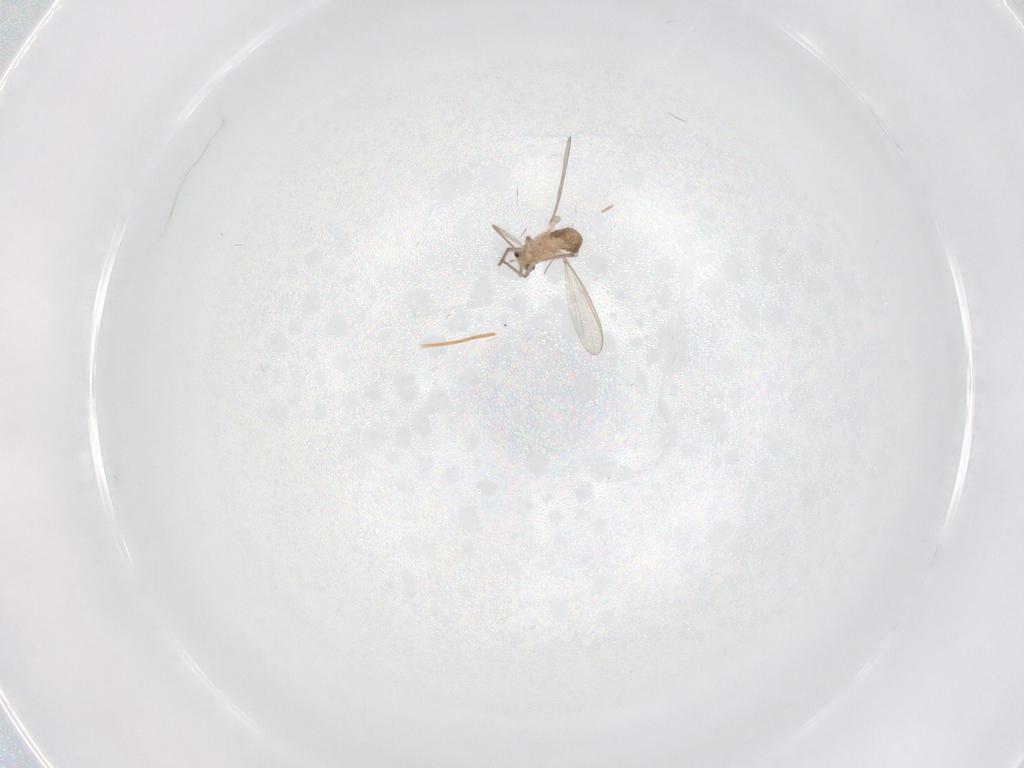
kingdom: Animalia
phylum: Arthropoda
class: Insecta
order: Diptera
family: Chironomidae
